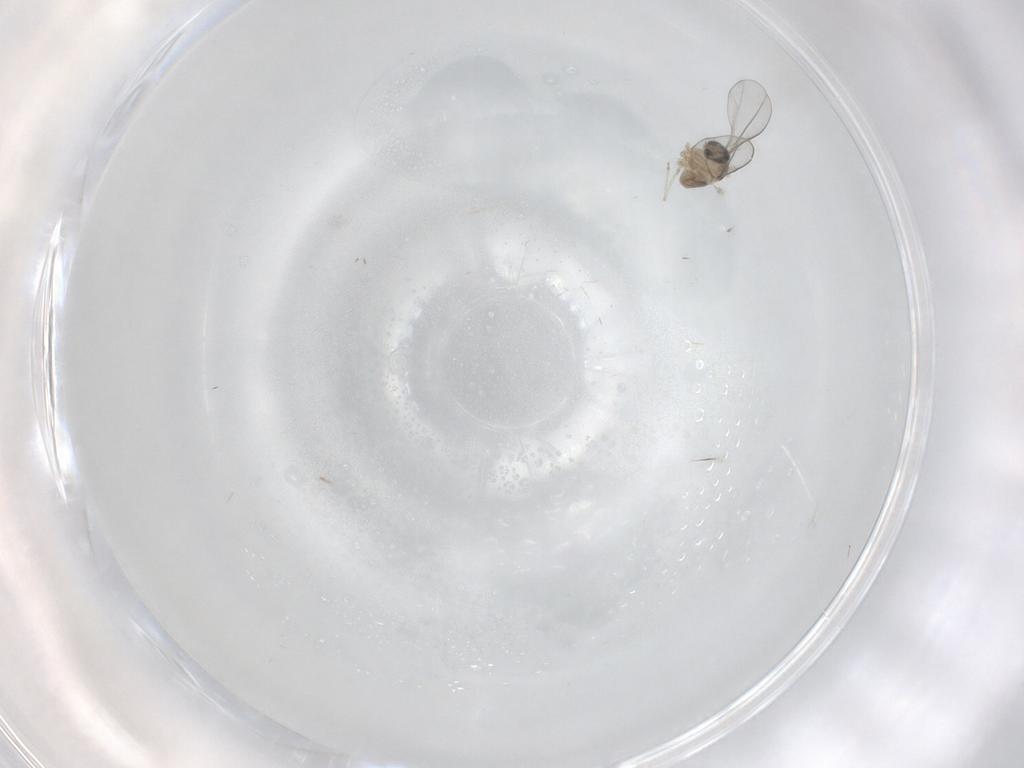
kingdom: Animalia
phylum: Arthropoda
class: Insecta
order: Diptera
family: Cecidomyiidae
